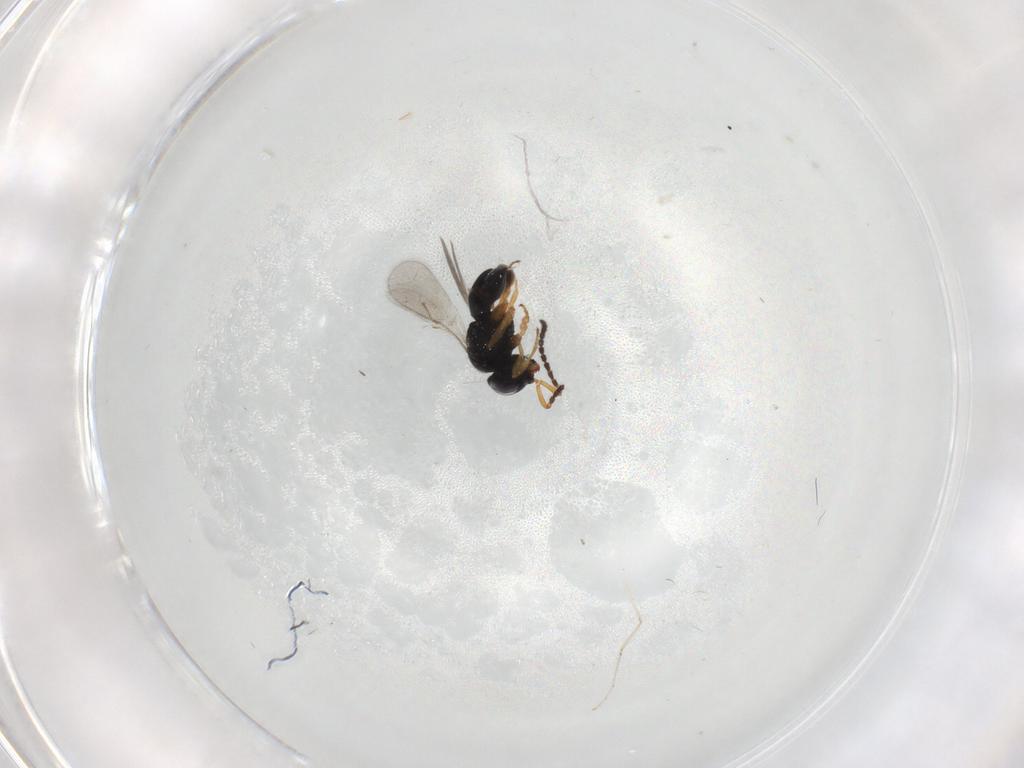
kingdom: Animalia
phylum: Arthropoda
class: Insecta
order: Hymenoptera
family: Scelionidae
